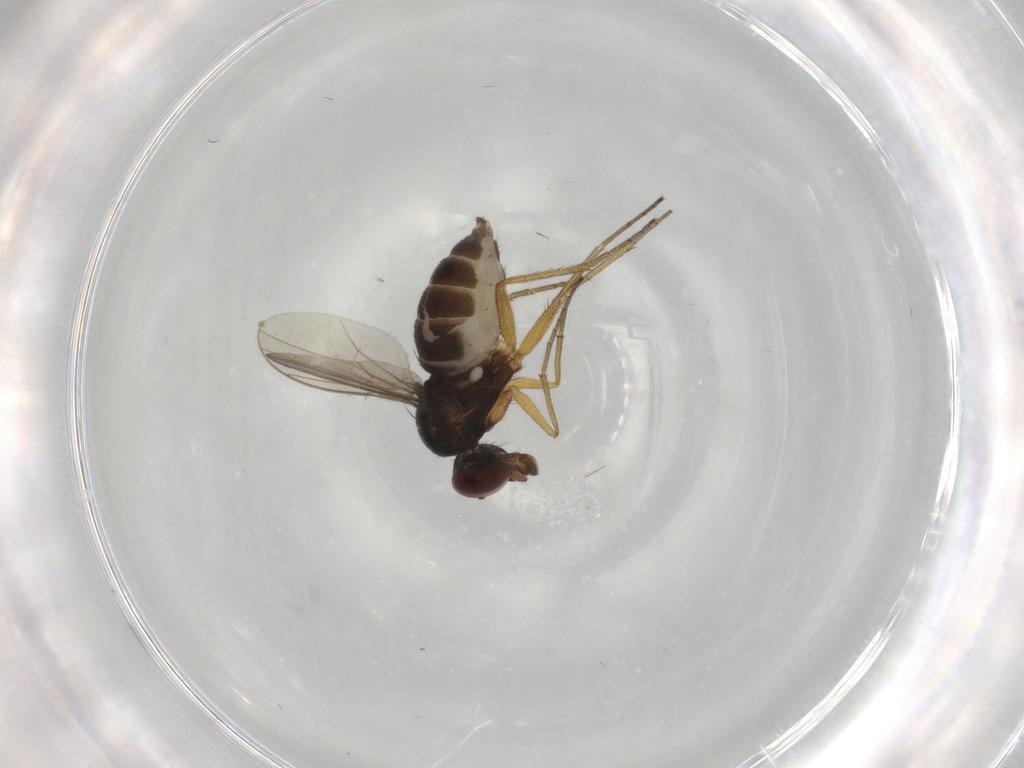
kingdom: Animalia
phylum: Arthropoda
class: Insecta
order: Diptera
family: Dolichopodidae
